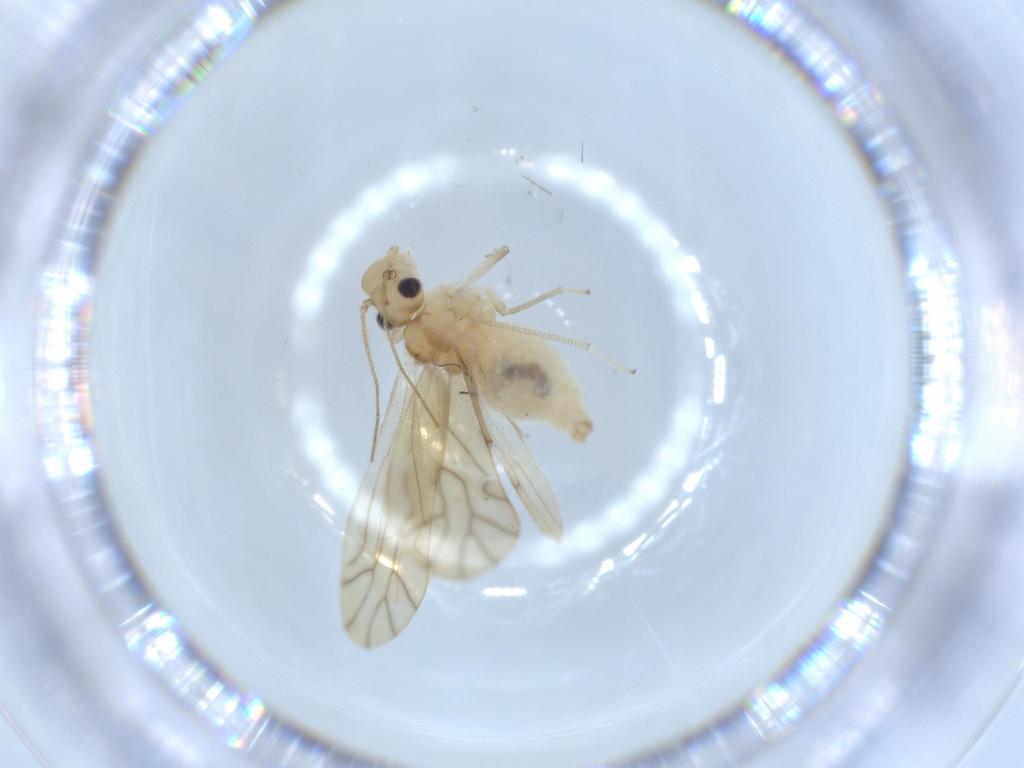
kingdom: Animalia
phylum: Arthropoda
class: Insecta
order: Psocodea
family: Caeciliusidae
